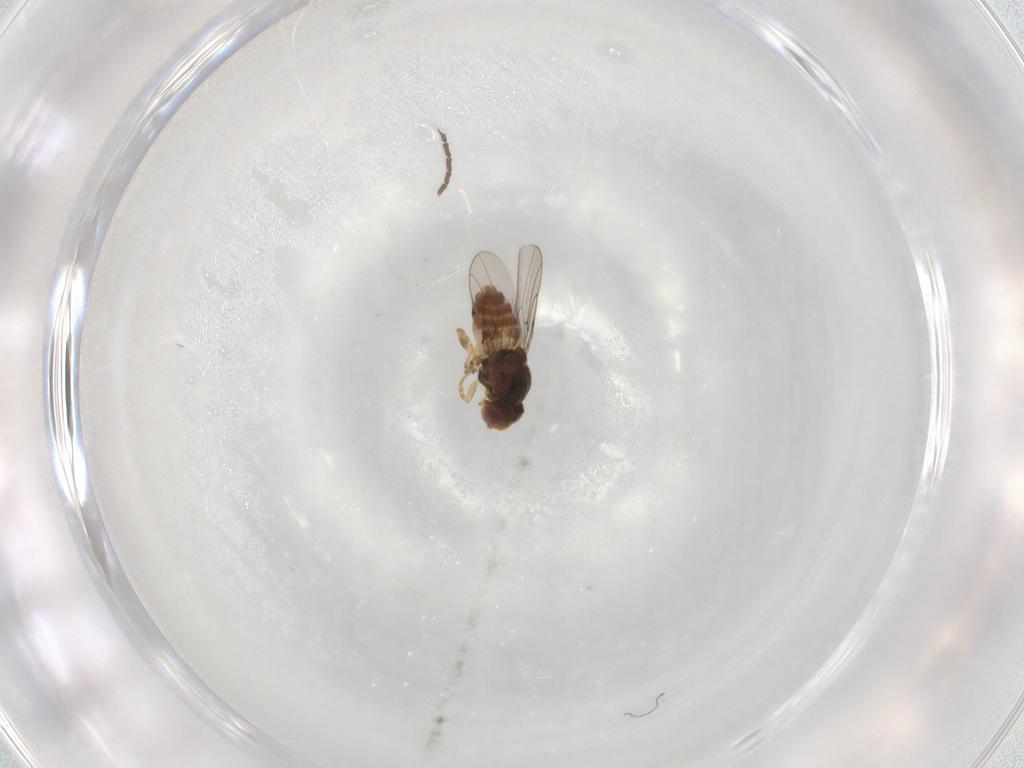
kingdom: Animalia
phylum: Arthropoda
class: Insecta
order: Diptera
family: Sciaridae
